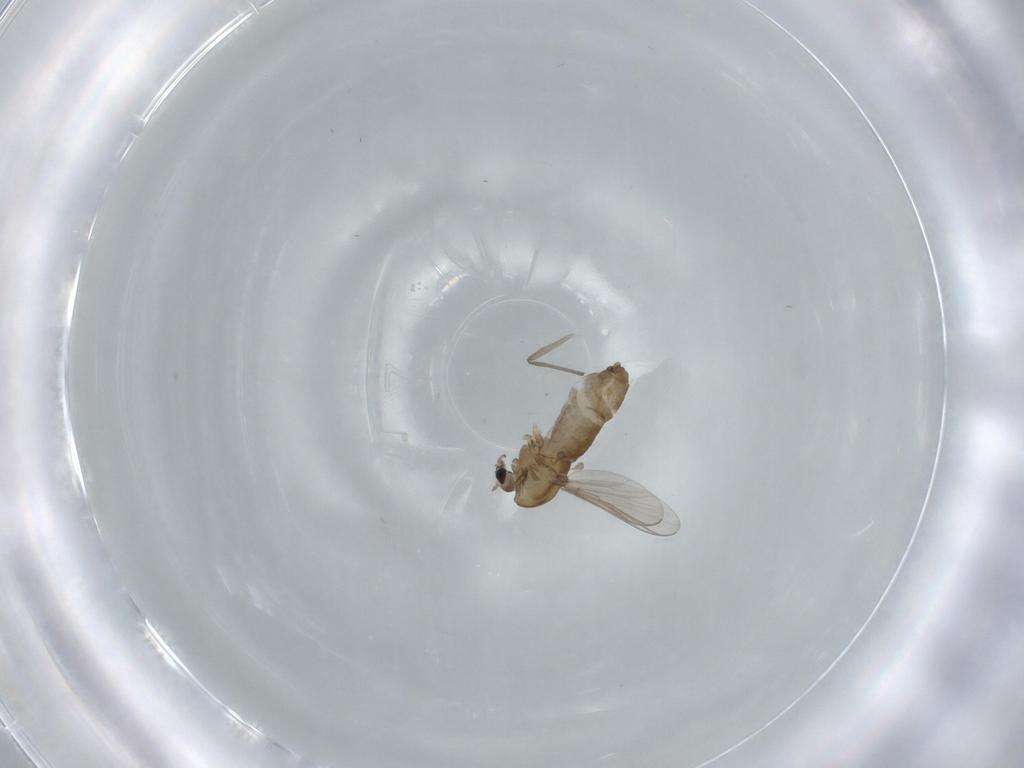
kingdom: Animalia
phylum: Arthropoda
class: Insecta
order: Diptera
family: Chironomidae
